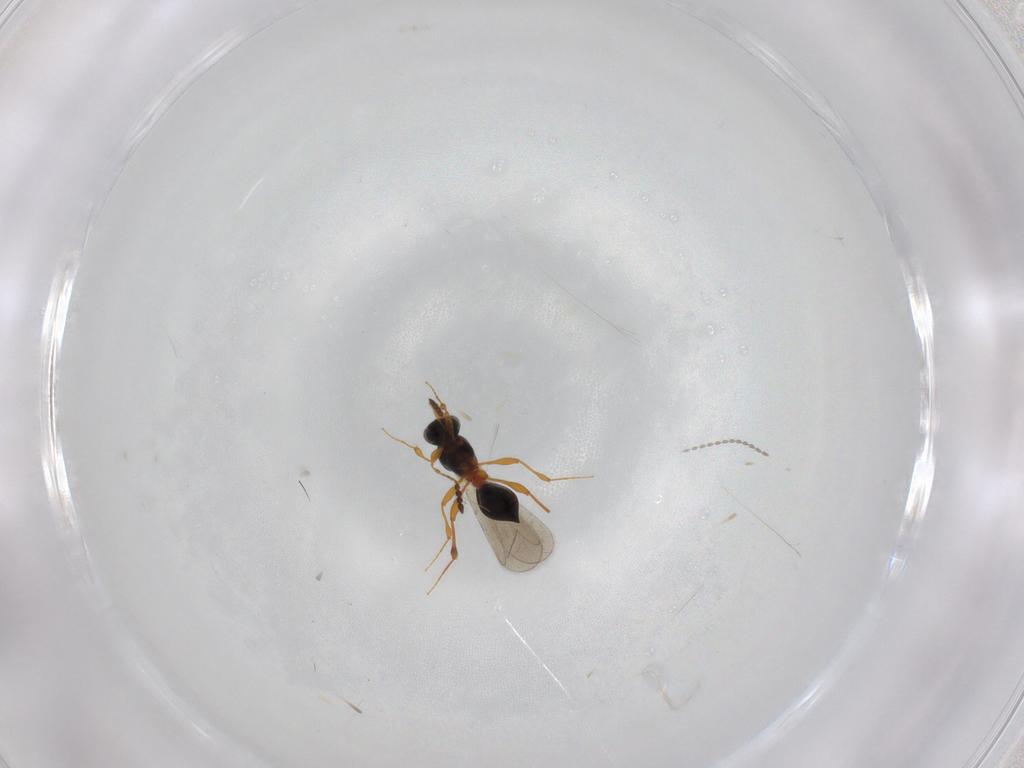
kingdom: Animalia
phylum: Arthropoda
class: Insecta
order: Hymenoptera
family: Platygastridae
